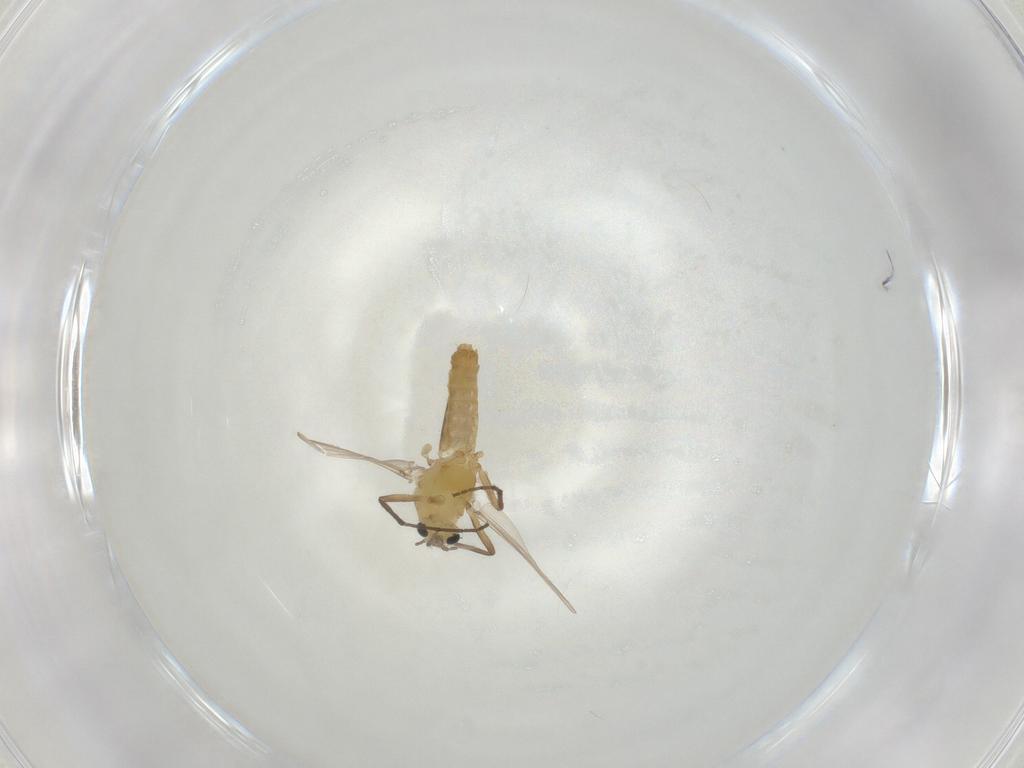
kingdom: Animalia
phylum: Arthropoda
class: Insecta
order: Diptera
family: Chironomidae
